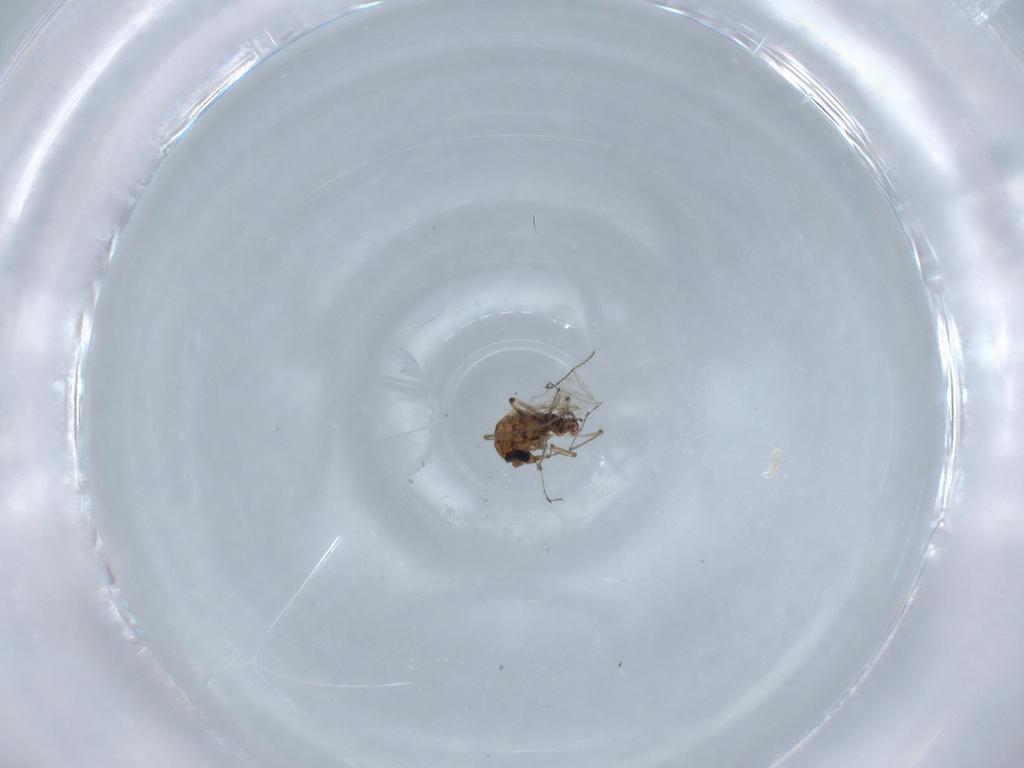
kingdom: Animalia
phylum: Arthropoda
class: Insecta
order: Diptera
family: Ceratopogonidae
